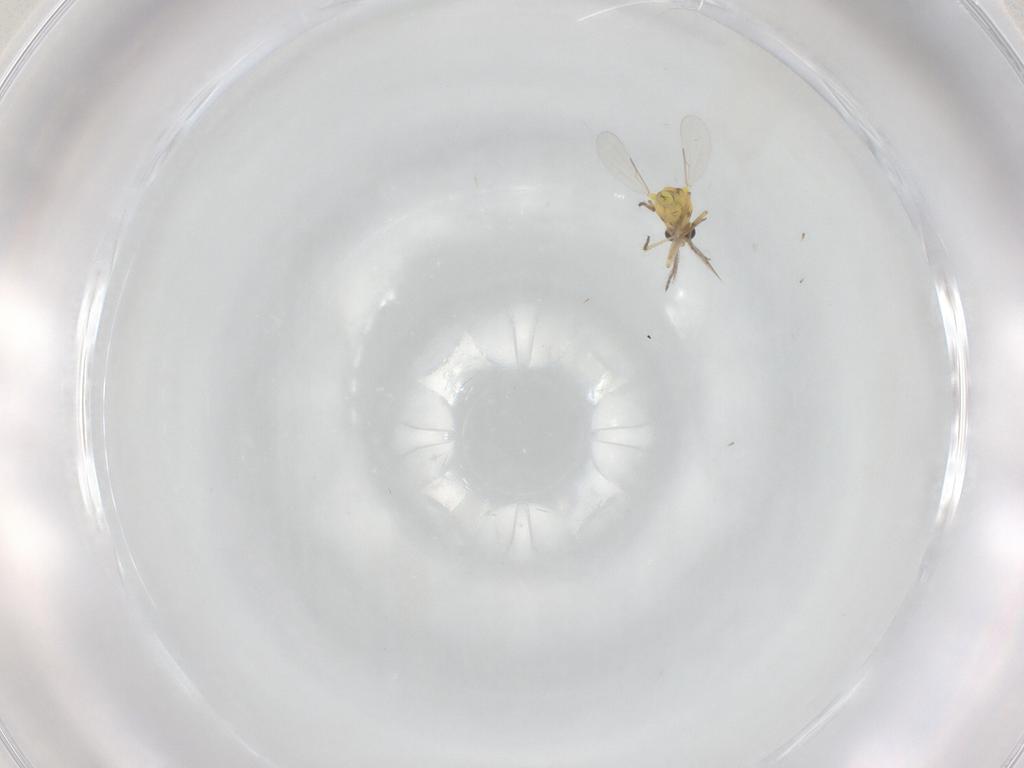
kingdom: Animalia
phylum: Arthropoda
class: Insecta
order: Diptera
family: Ceratopogonidae
